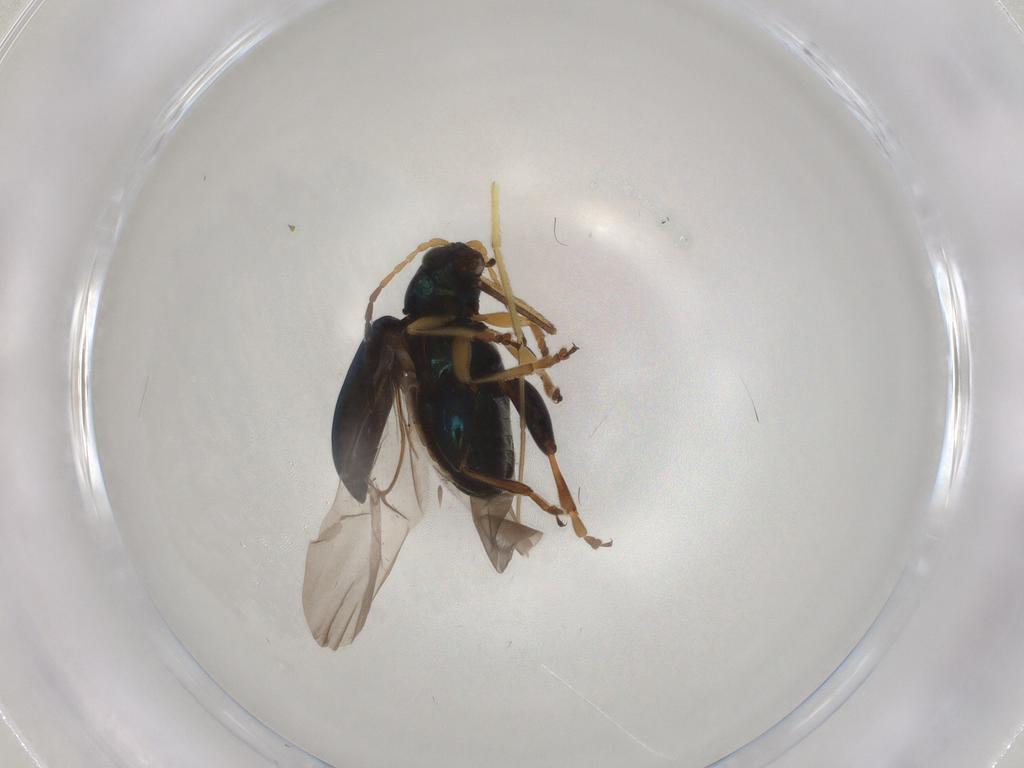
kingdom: Animalia
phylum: Arthropoda
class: Insecta
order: Coleoptera
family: Chrysomelidae
